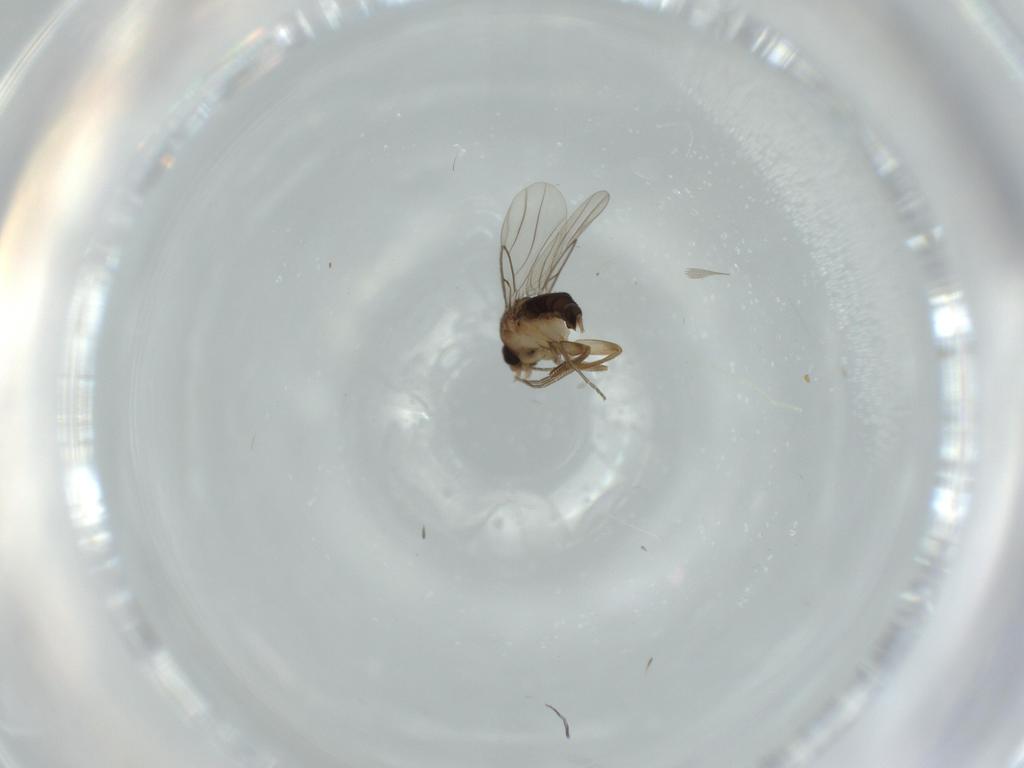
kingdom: Animalia
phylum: Arthropoda
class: Insecta
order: Diptera
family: Phoridae
